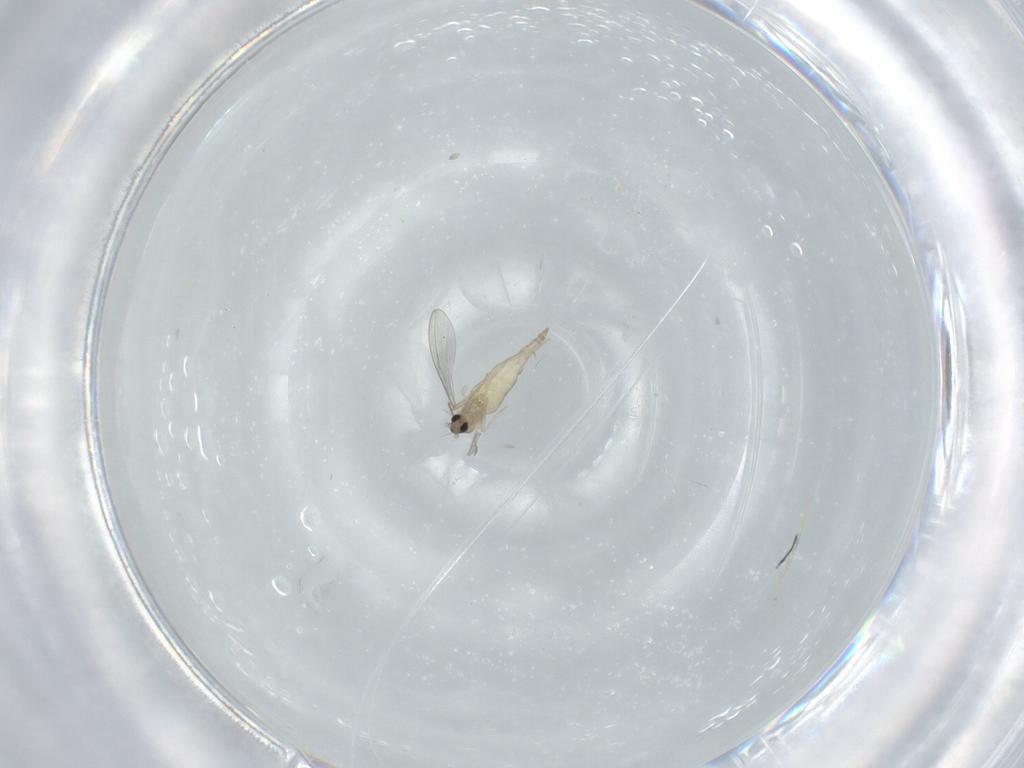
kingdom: Animalia
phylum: Arthropoda
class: Insecta
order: Diptera
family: Cecidomyiidae
